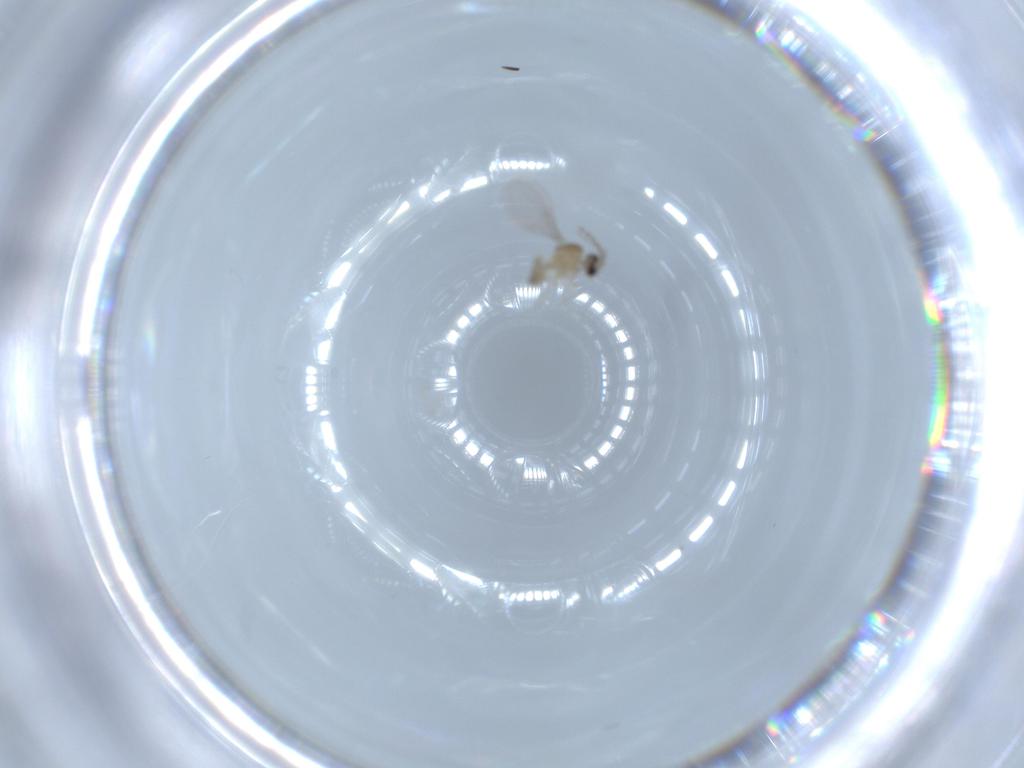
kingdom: Animalia
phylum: Arthropoda
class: Insecta
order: Diptera
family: Cecidomyiidae
